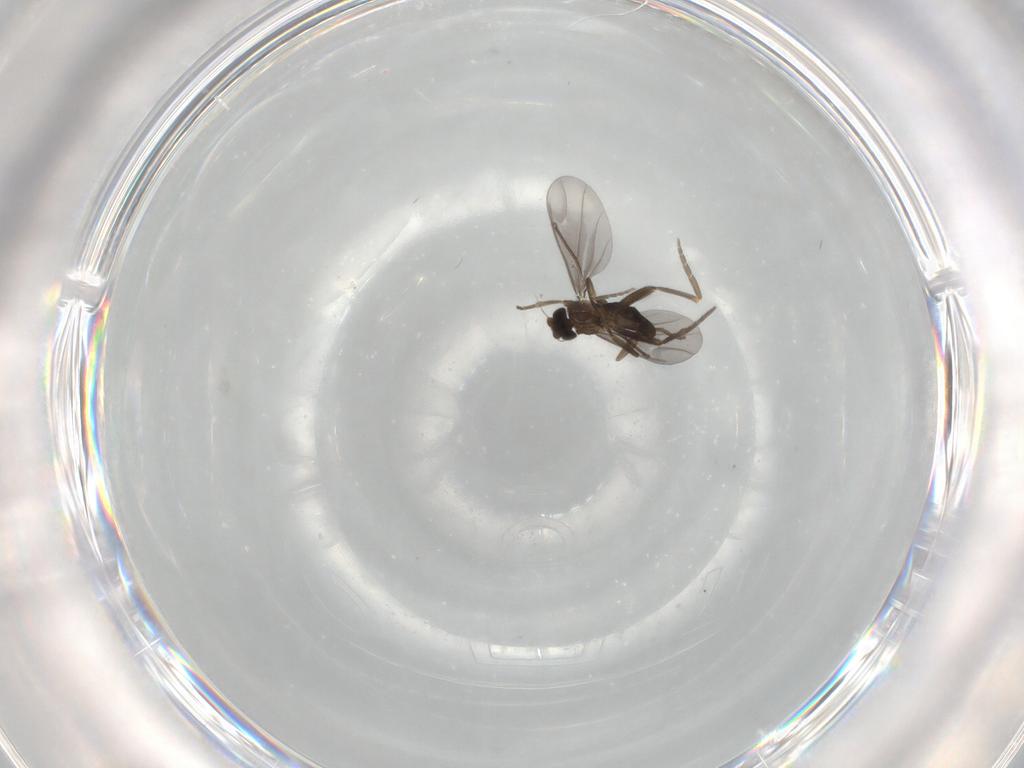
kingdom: Animalia
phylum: Arthropoda
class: Insecta
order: Diptera
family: Phoridae
